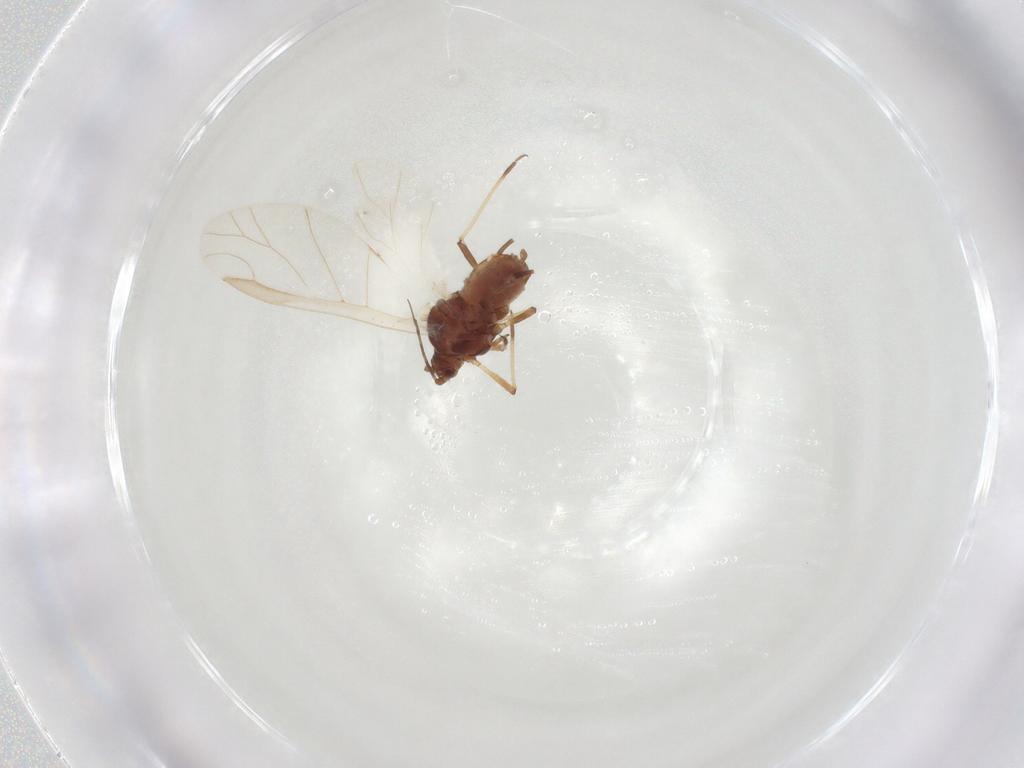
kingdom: Animalia
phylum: Arthropoda
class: Insecta
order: Hemiptera
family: Aphididae
